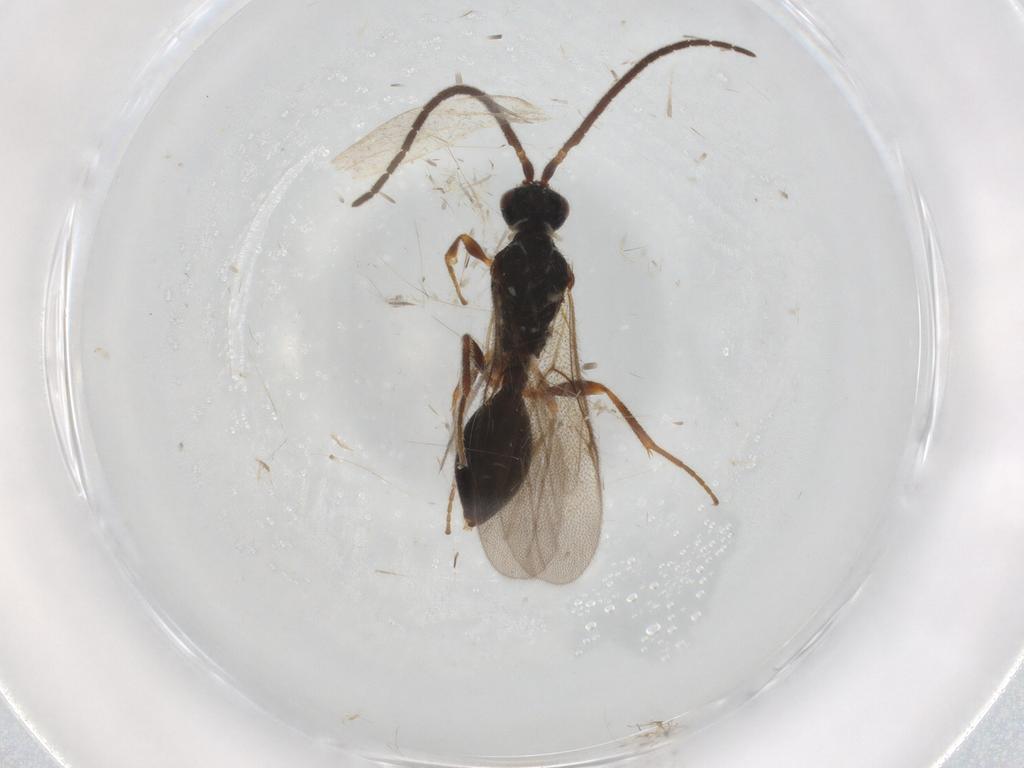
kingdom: Animalia
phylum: Arthropoda
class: Insecta
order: Hymenoptera
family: Diapriidae
